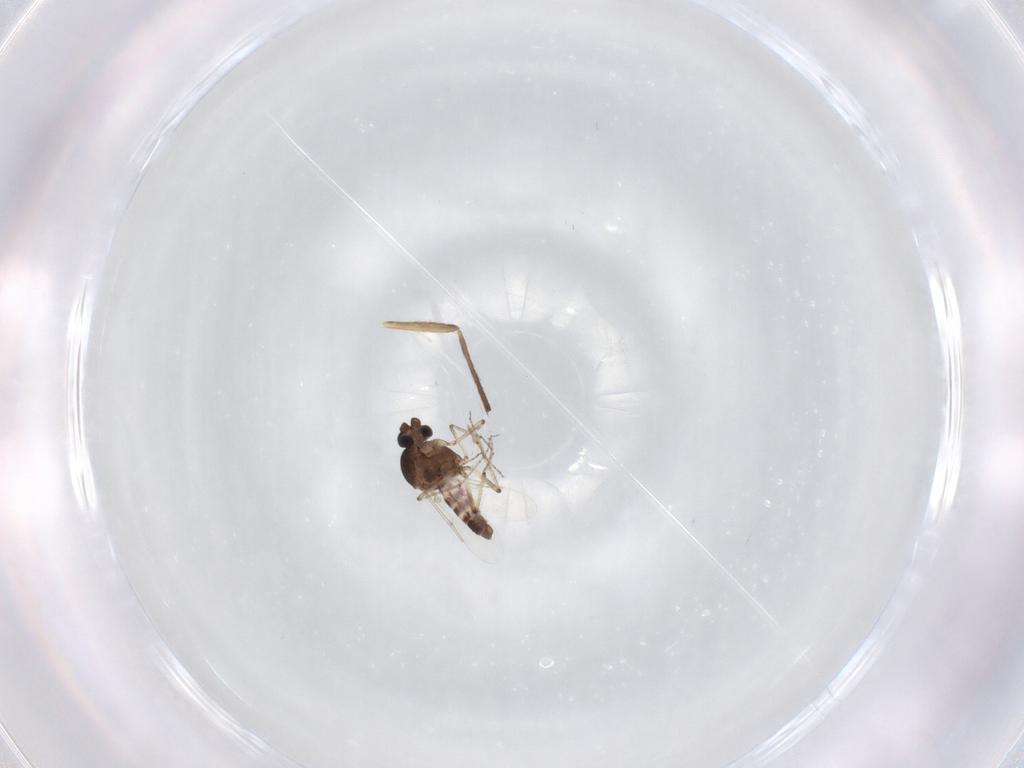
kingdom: Animalia
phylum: Arthropoda
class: Insecta
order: Diptera
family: Ceratopogonidae
